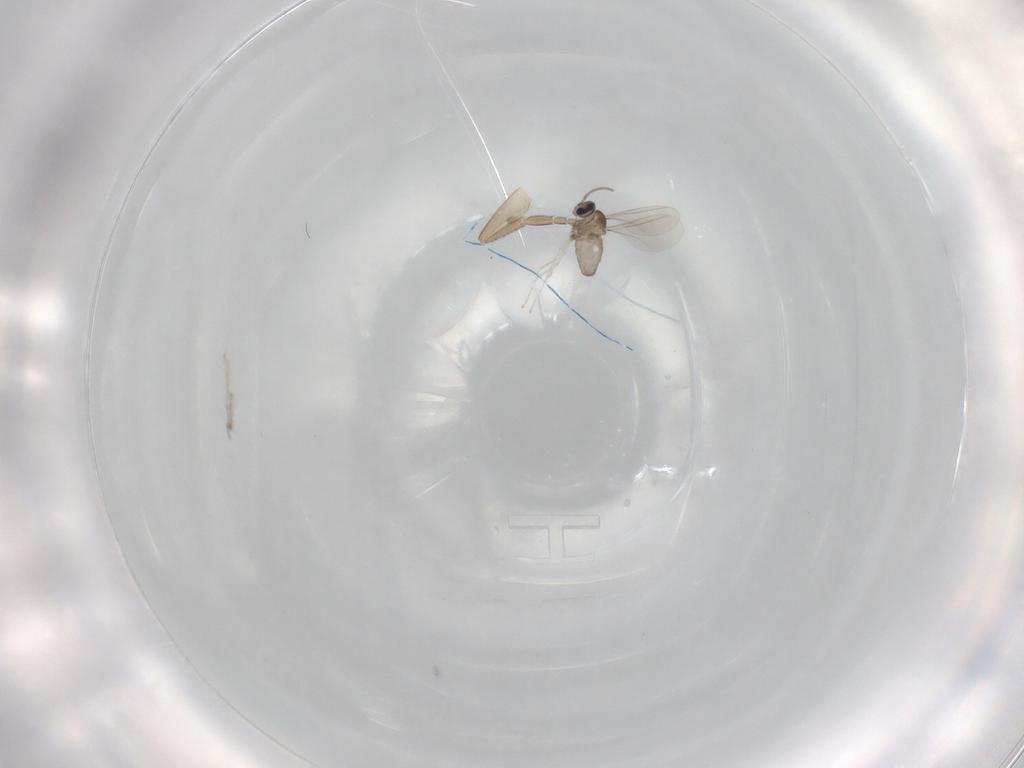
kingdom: Animalia
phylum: Arthropoda
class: Insecta
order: Diptera
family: Cecidomyiidae
